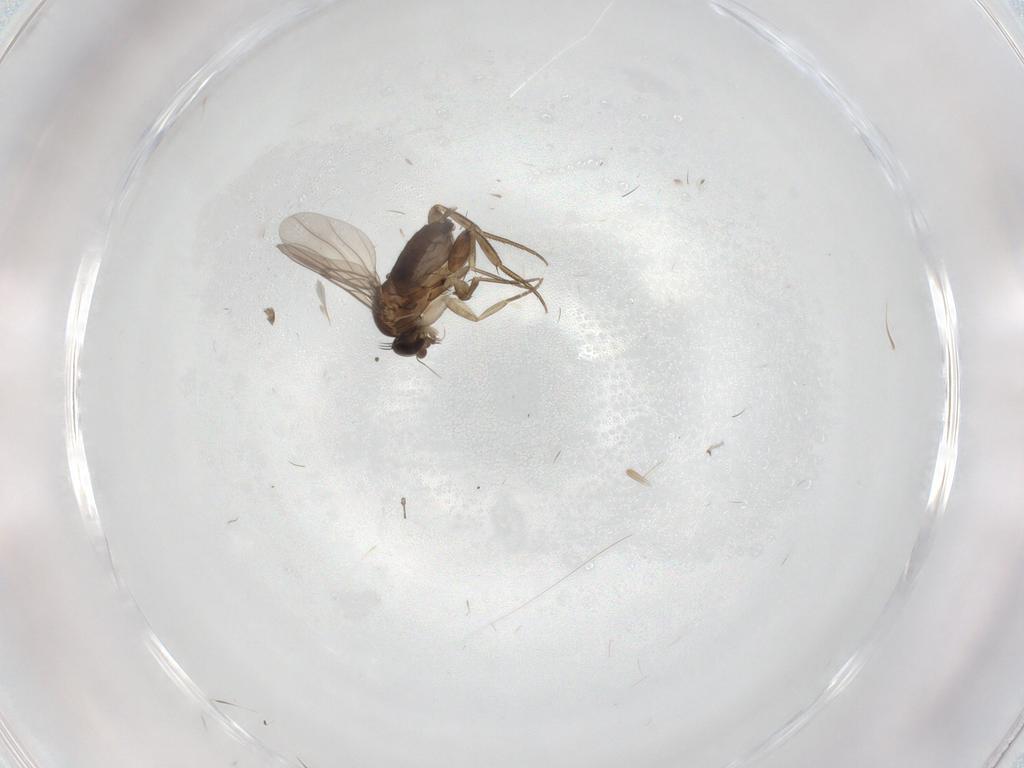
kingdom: Animalia
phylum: Arthropoda
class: Insecta
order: Diptera
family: Phoridae
